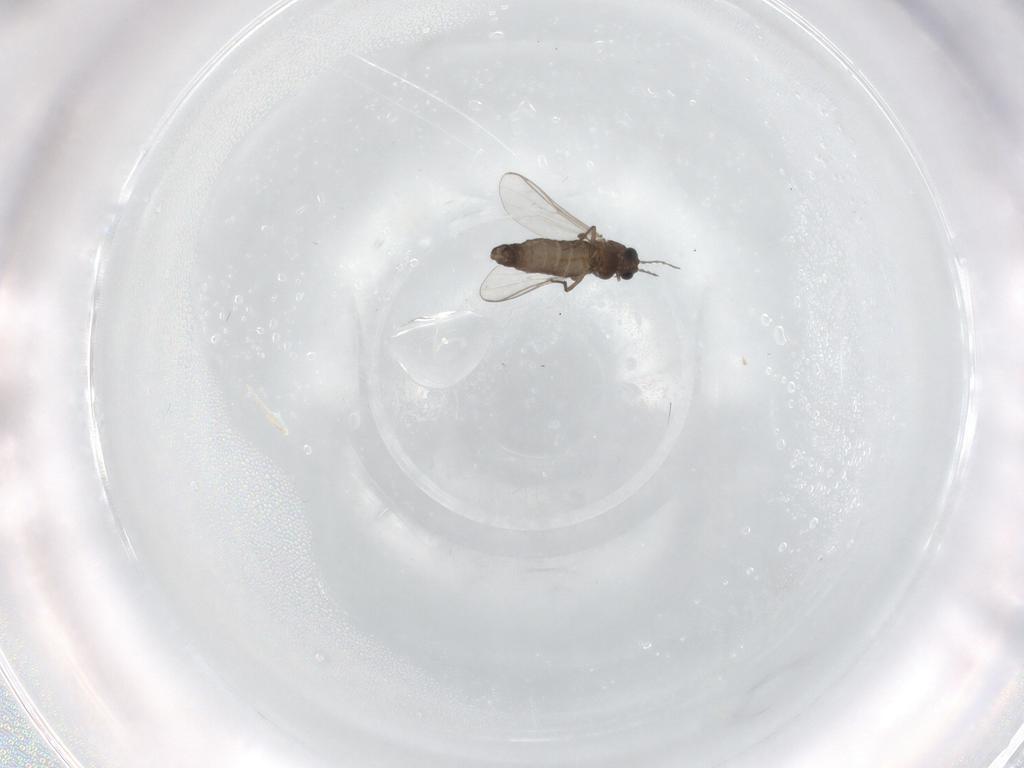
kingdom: Animalia
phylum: Arthropoda
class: Insecta
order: Diptera
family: Chironomidae
